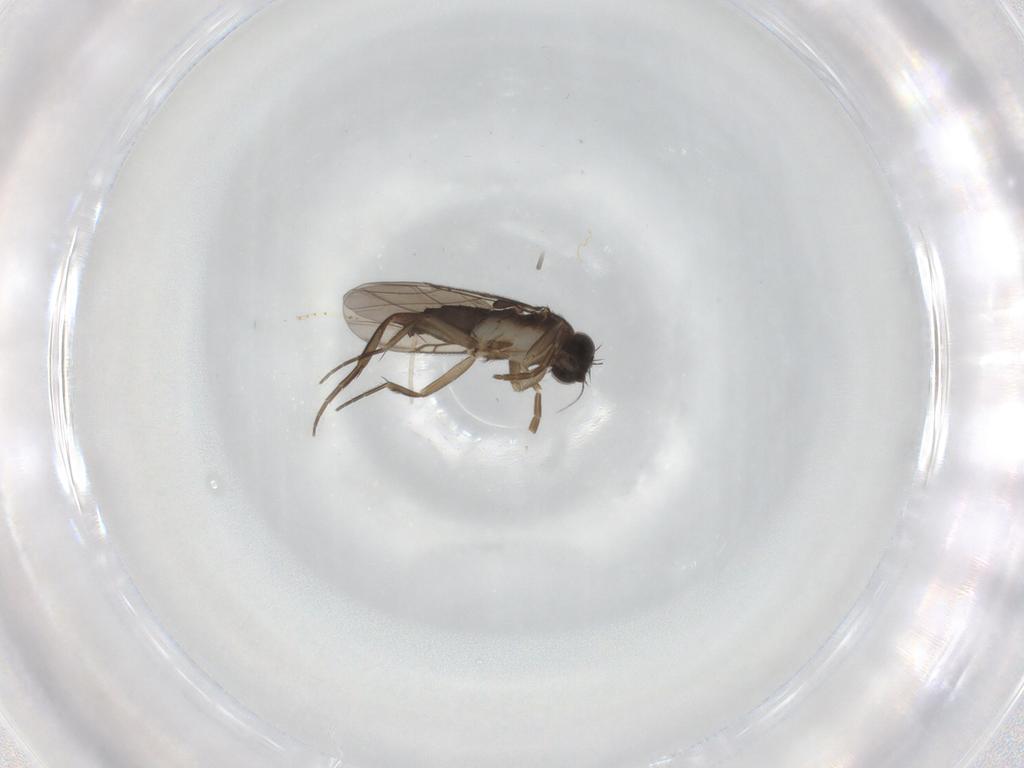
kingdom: Animalia
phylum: Arthropoda
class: Insecta
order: Diptera
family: Phoridae
